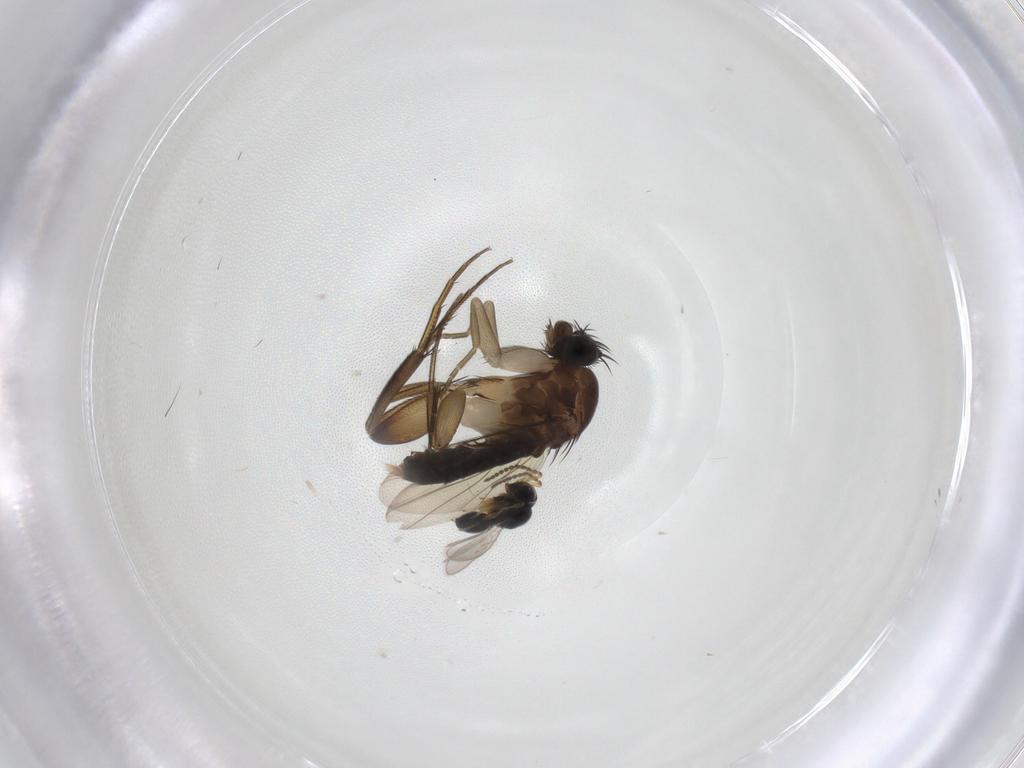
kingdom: Animalia
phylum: Arthropoda
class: Insecta
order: Diptera
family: Phoridae
